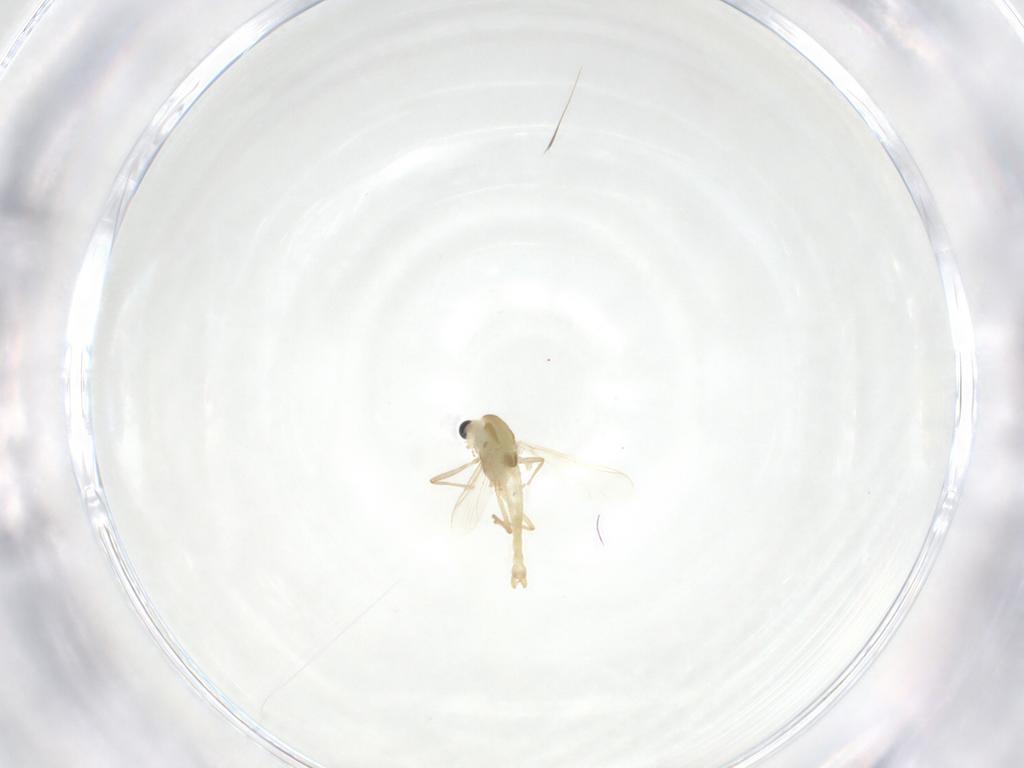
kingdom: Animalia
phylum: Arthropoda
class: Insecta
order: Diptera
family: Chironomidae
